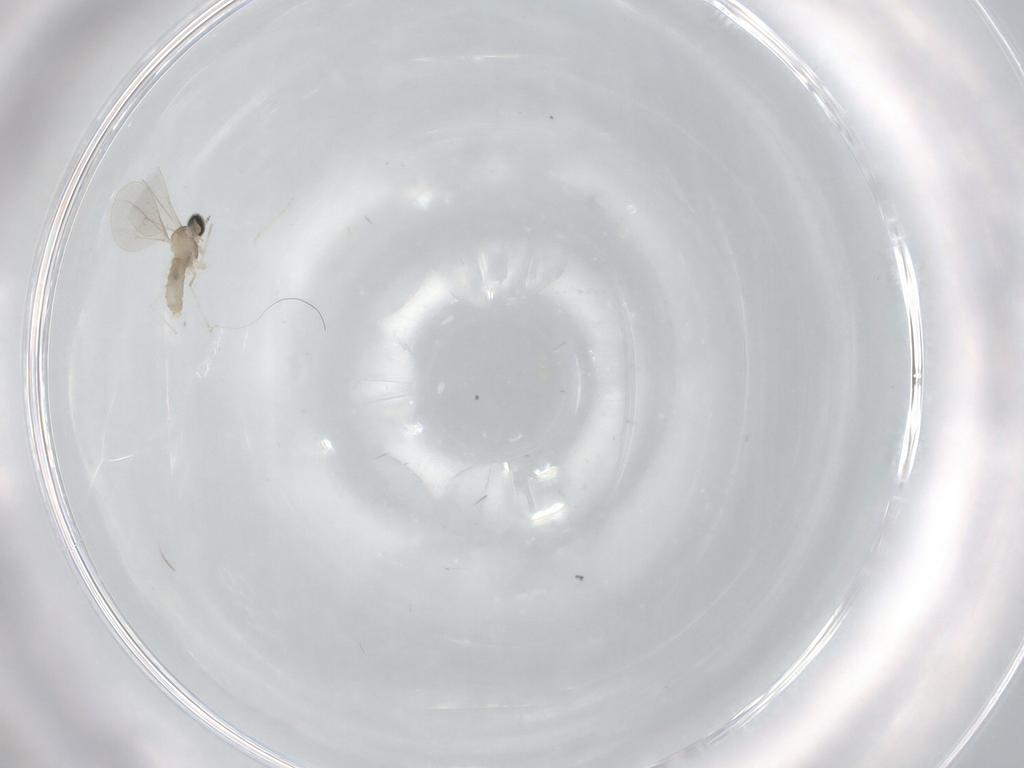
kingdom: Animalia
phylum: Arthropoda
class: Insecta
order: Diptera
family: Cecidomyiidae
